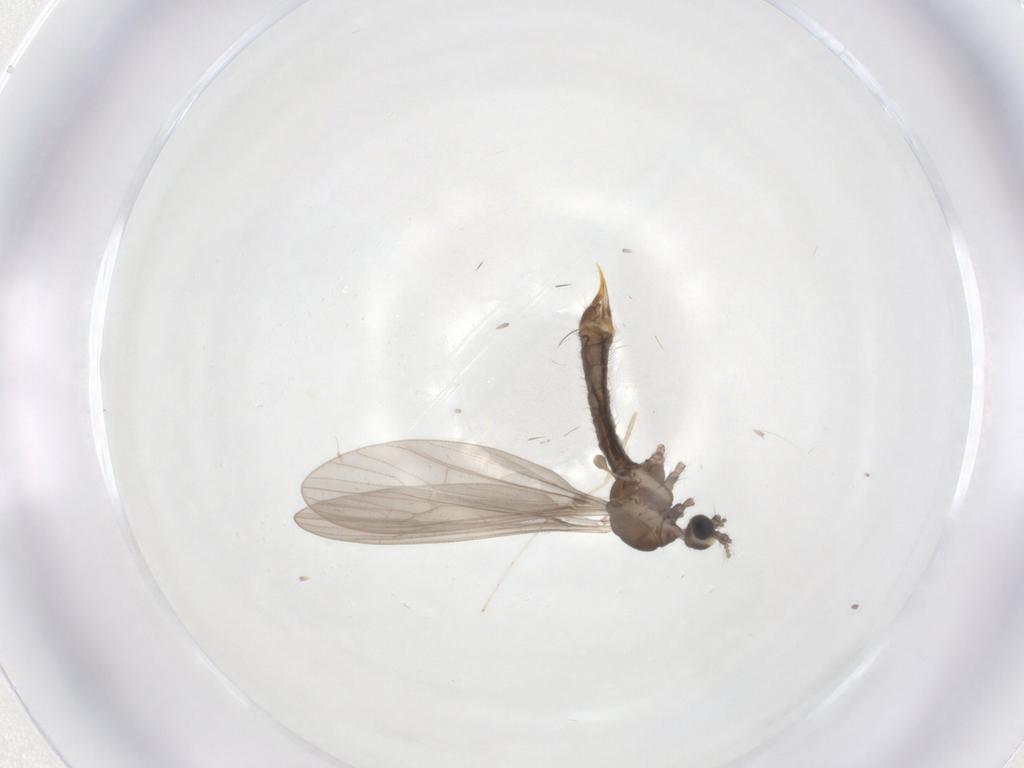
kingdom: Animalia
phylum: Arthropoda
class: Insecta
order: Diptera
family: Limoniidae
